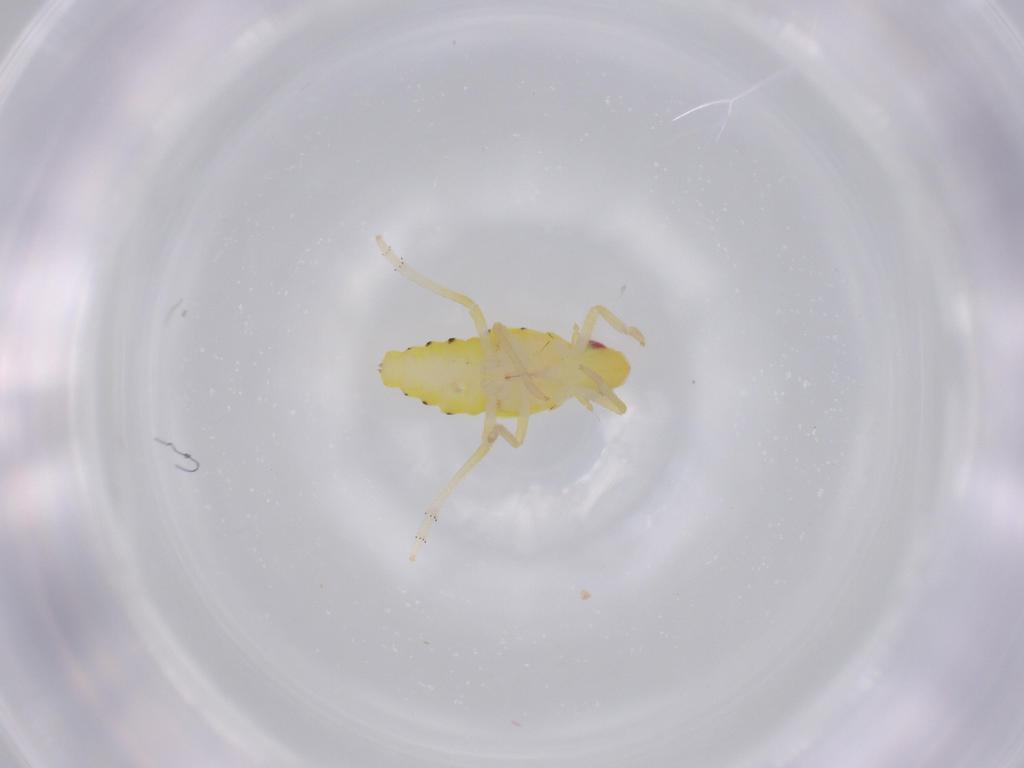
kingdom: Animalia
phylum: Arthropoda
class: Insecta
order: Hemiptera
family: Tropiduchidae
